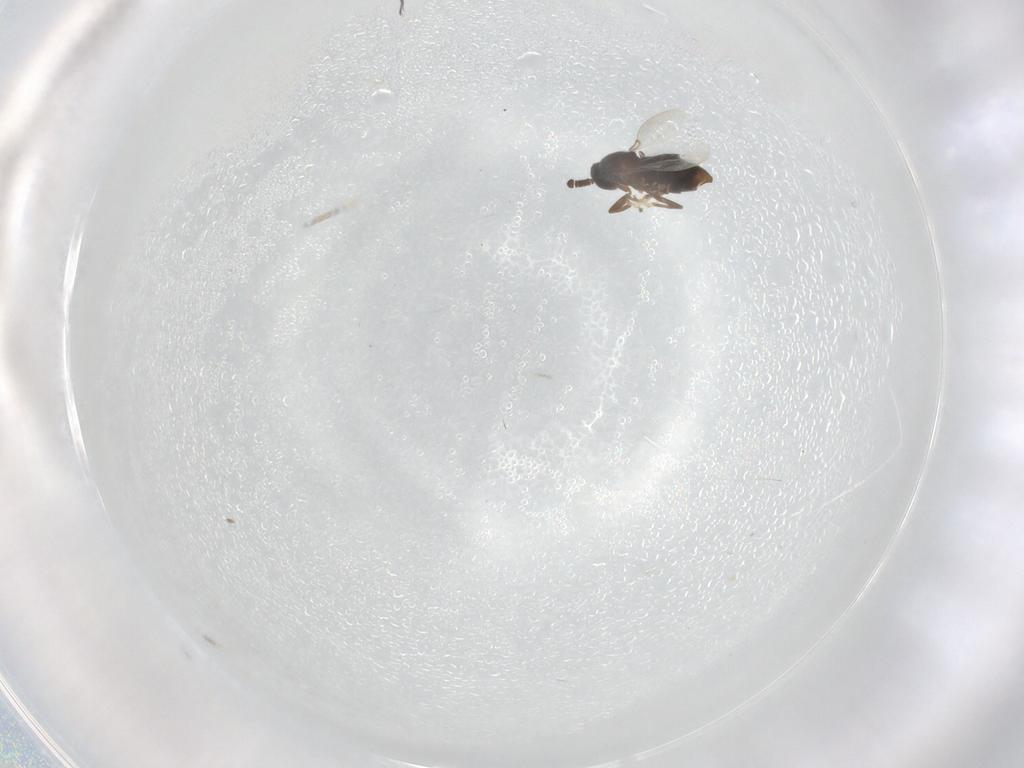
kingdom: Animalia
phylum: Arthropoda
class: Insecta
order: Diptera
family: Scatopsidae
